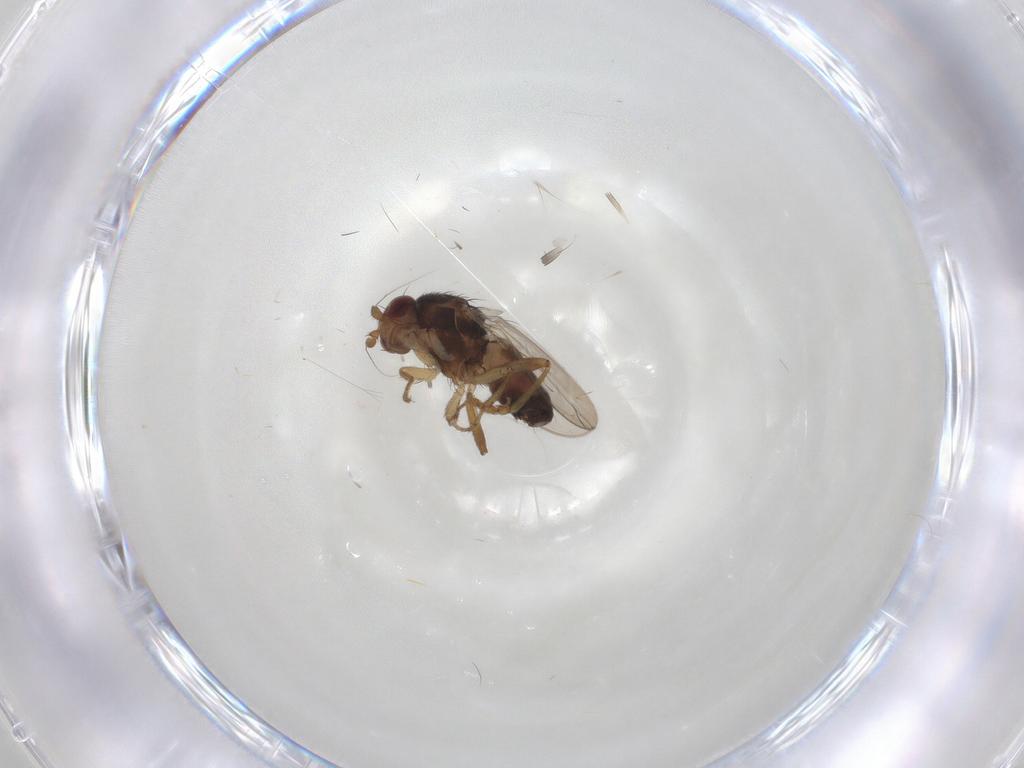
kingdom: Animalia
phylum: Arthropoda
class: Insecta
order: Diptera
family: Sphaeroceridae
